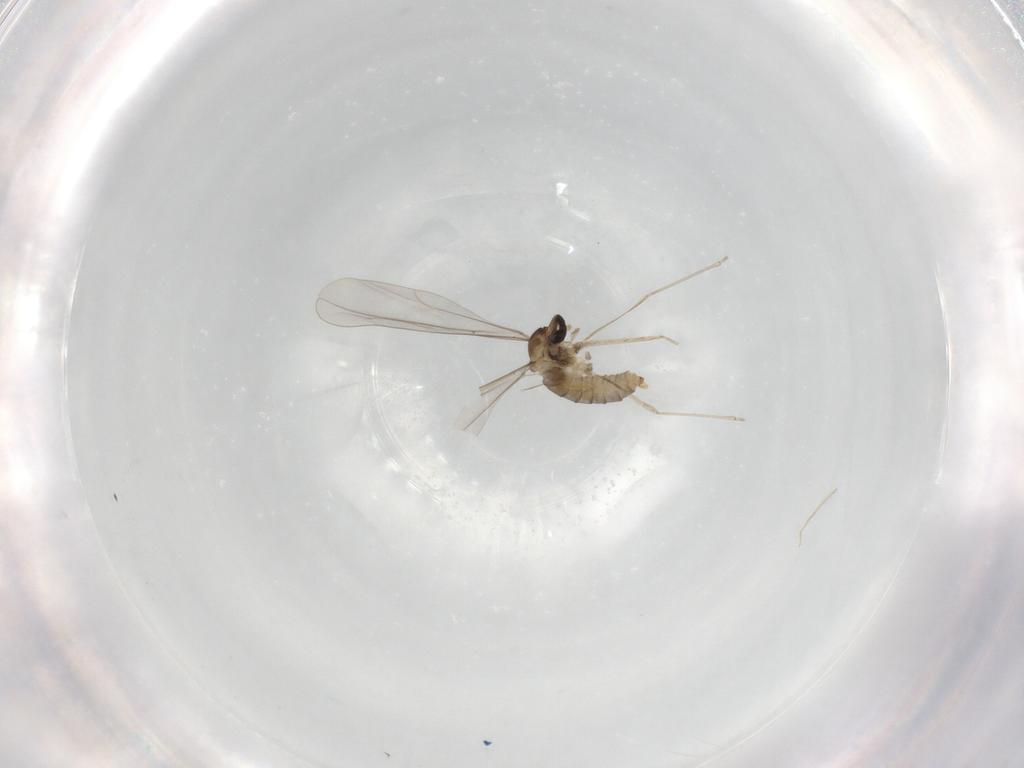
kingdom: Animalia
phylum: Arthropoda
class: Insecta
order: Diptera
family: Cecidomyiidae
